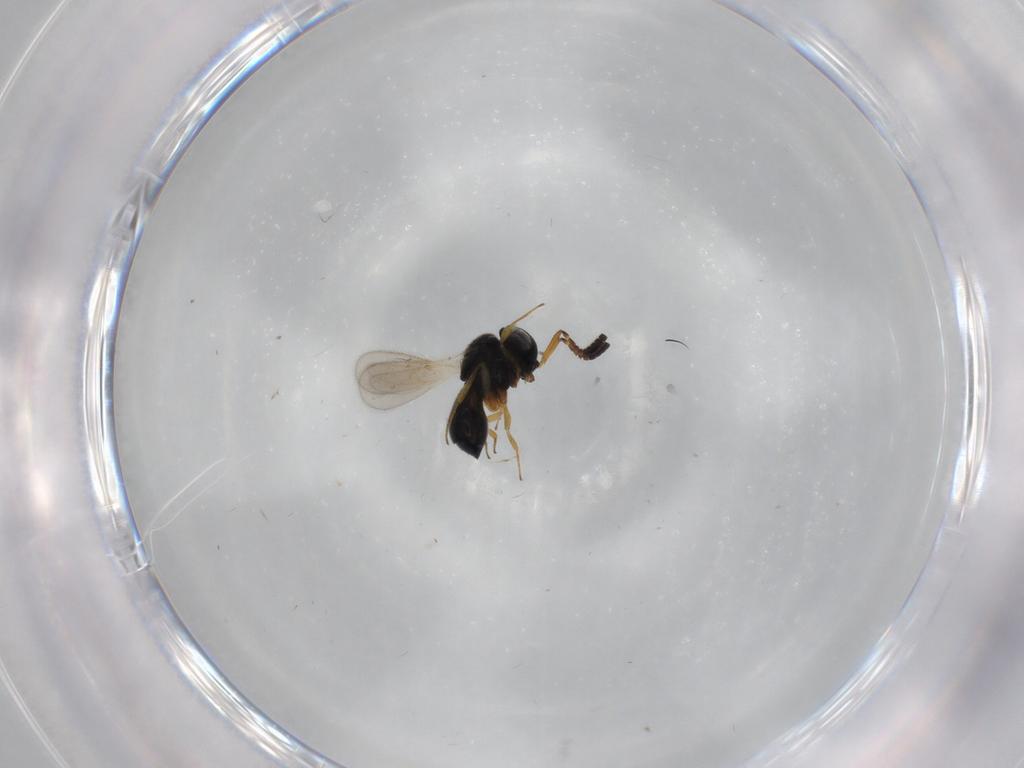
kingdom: Animalia
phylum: Arthropoda
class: Insecta
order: Hymenoptera
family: Scelionidae
